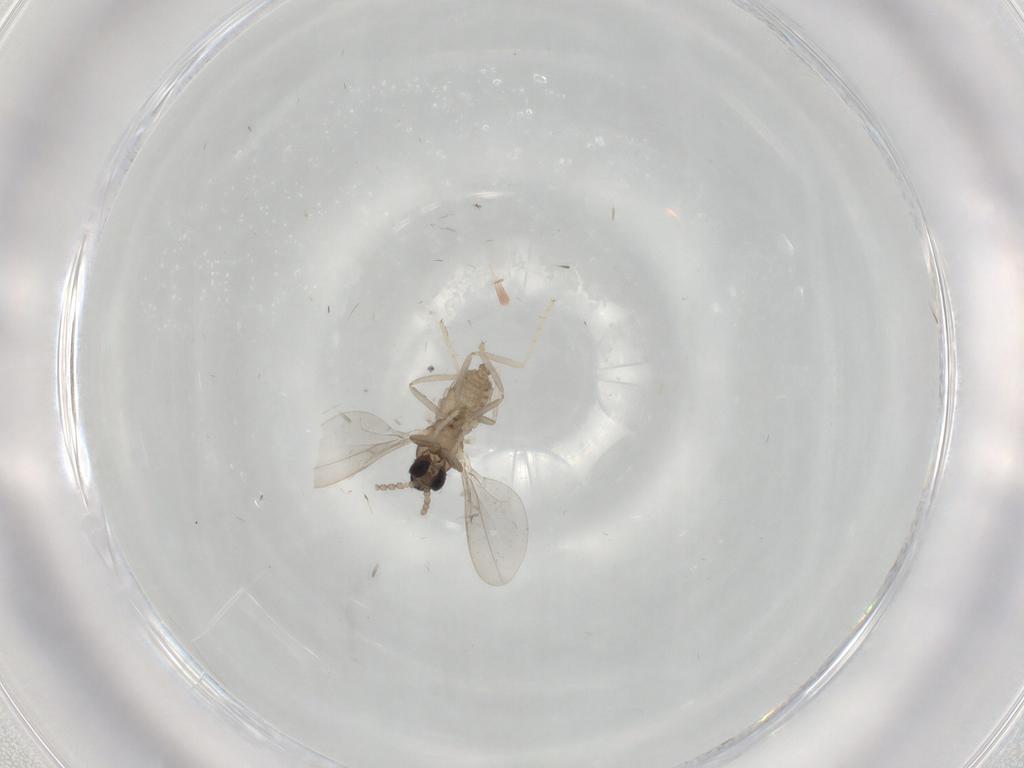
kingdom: Animalia
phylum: Arthropoda
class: Insecta
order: Diptera
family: Cecidomyiidae
